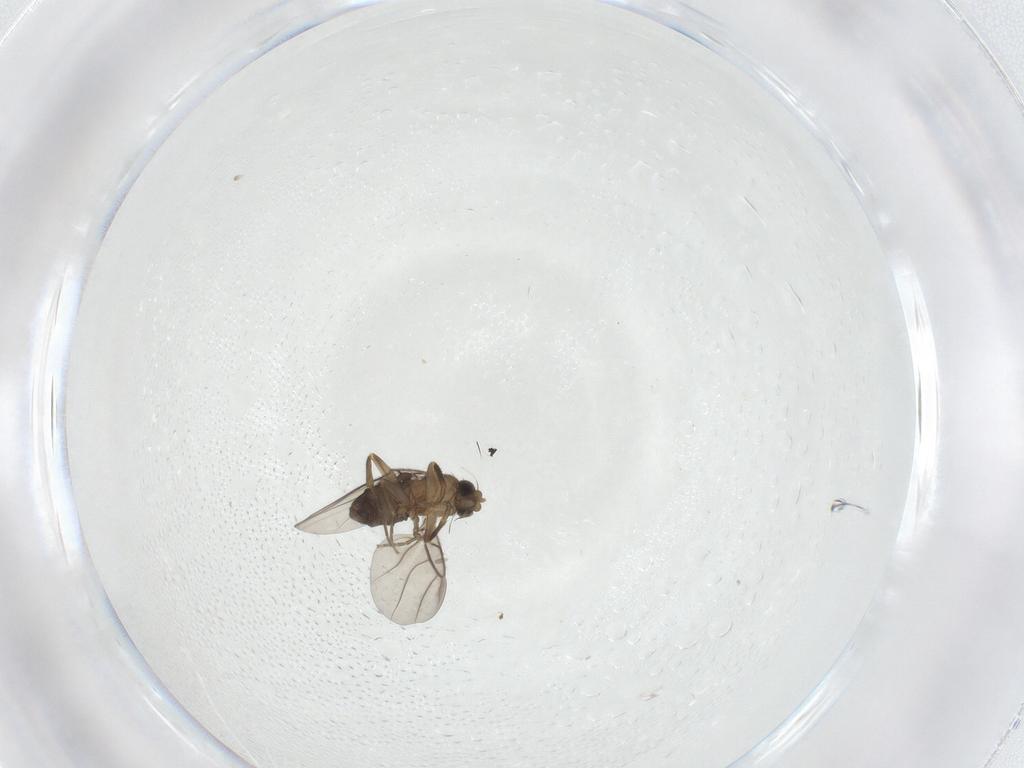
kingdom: Animalia
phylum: Arthropoda
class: Insecta
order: Diptera
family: Phoridae
